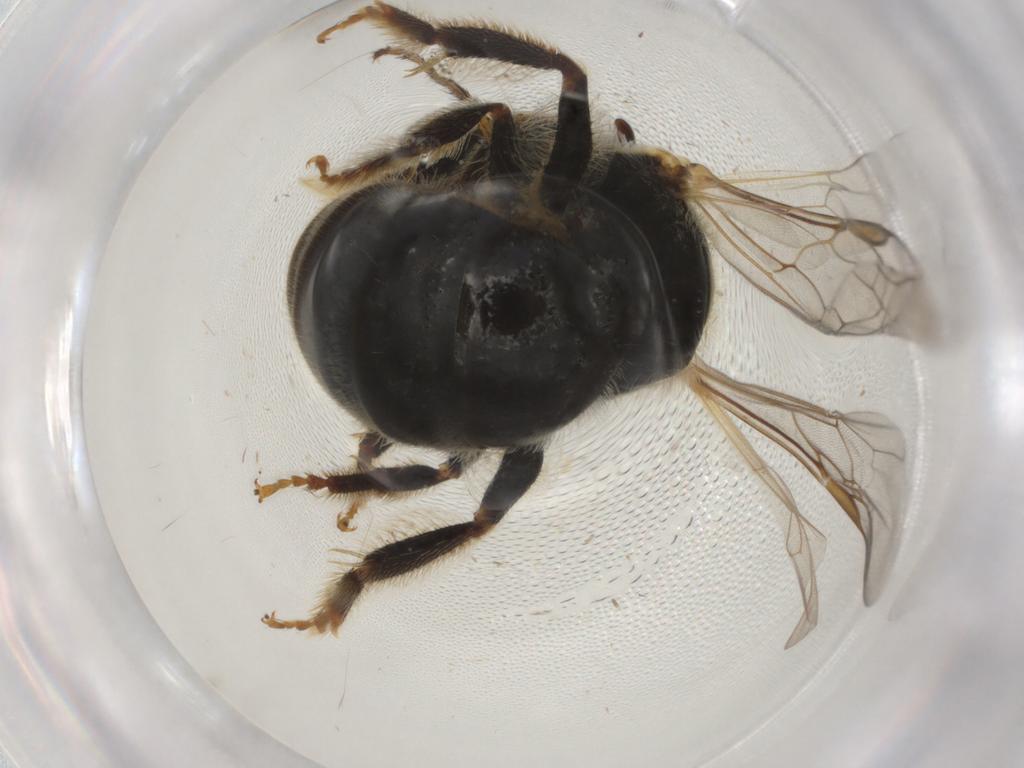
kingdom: Animalia
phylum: Arthropoda
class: Insecta
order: Hymenoptera
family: Halictidae
